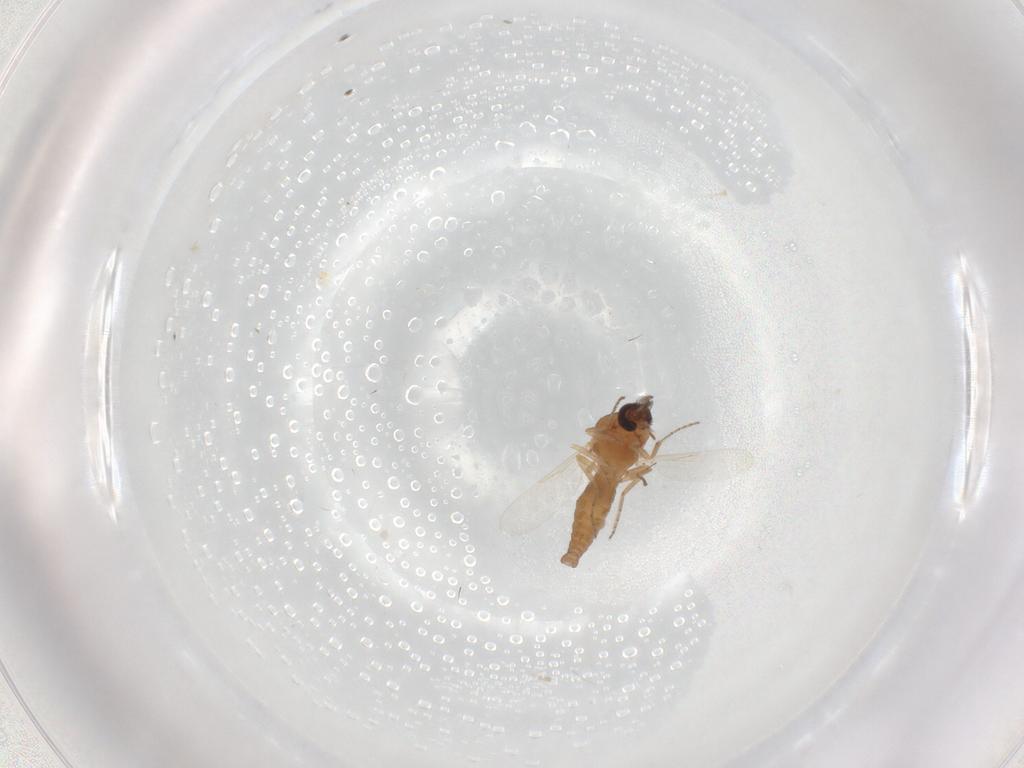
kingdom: Animalia
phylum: Arthropoda
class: Insecta
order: Diptera
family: Ceratopogonidae
